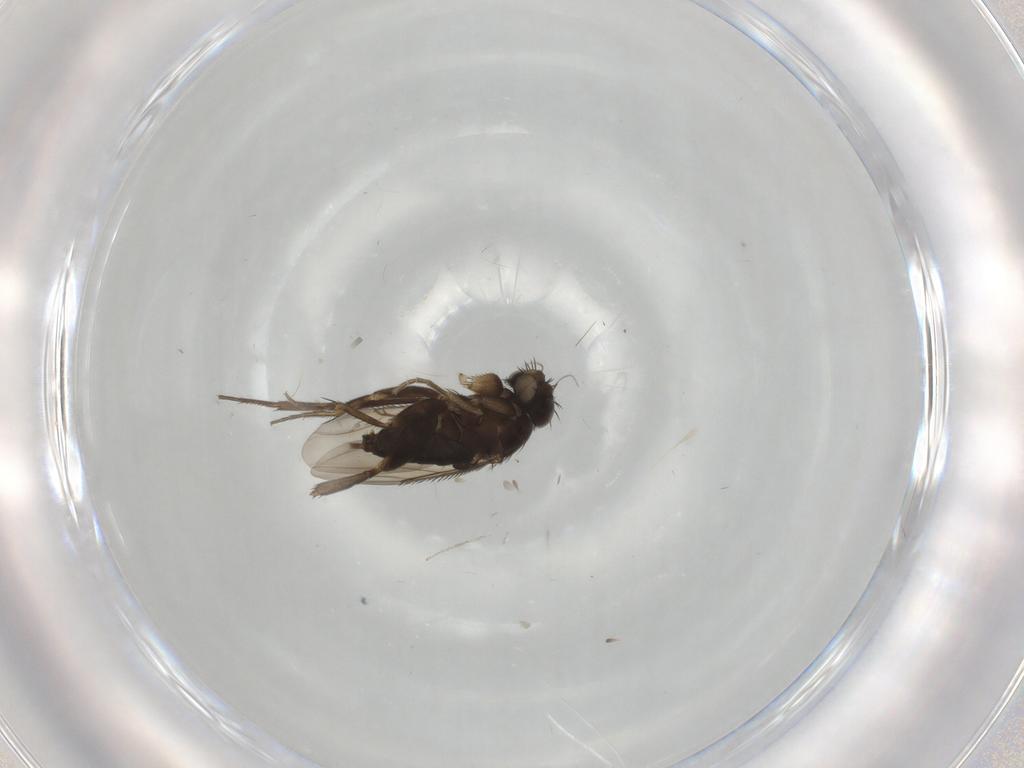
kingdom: Animalia
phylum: Arthropoda
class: Insecta
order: Diptera
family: Phoridae
